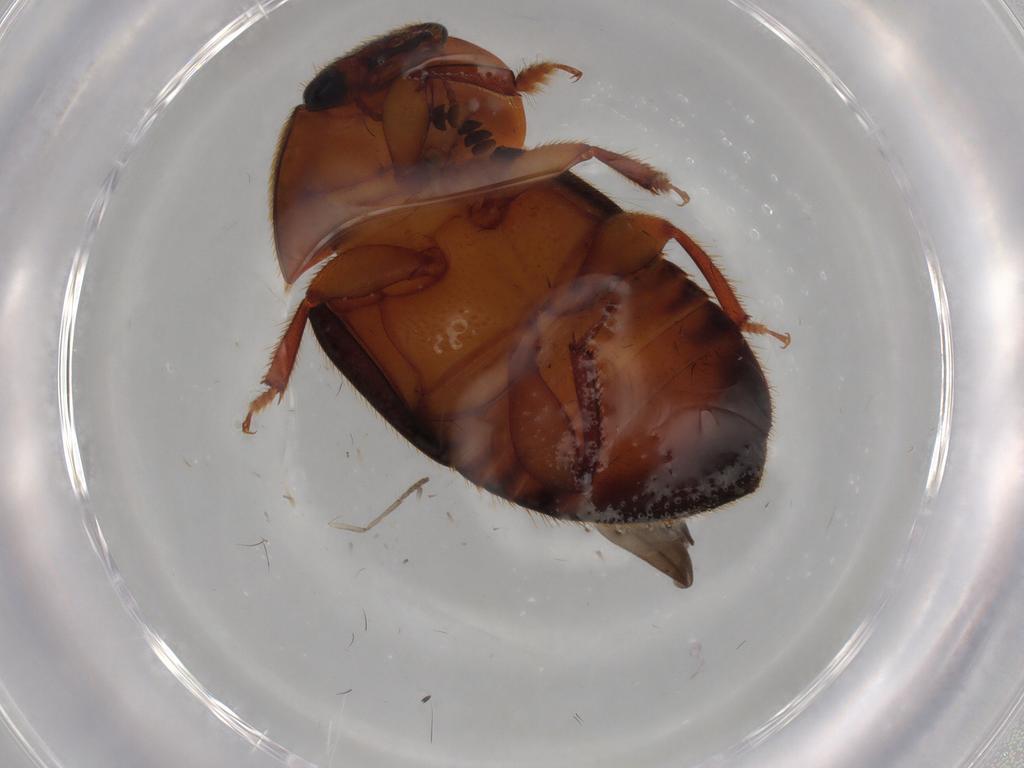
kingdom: Animalia
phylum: Arthropoda
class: Insecta
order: Coleoptera
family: Nitidulidae
